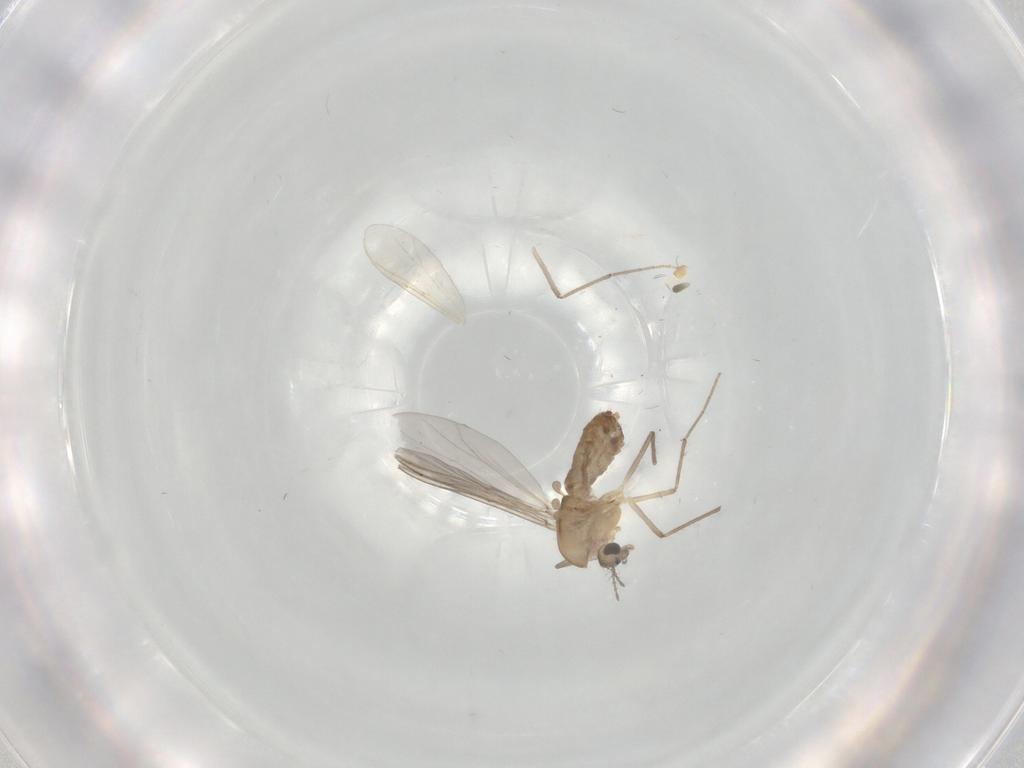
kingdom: Animalia
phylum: Arthropoda
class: Insecta
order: Diptera
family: Chironomidae
